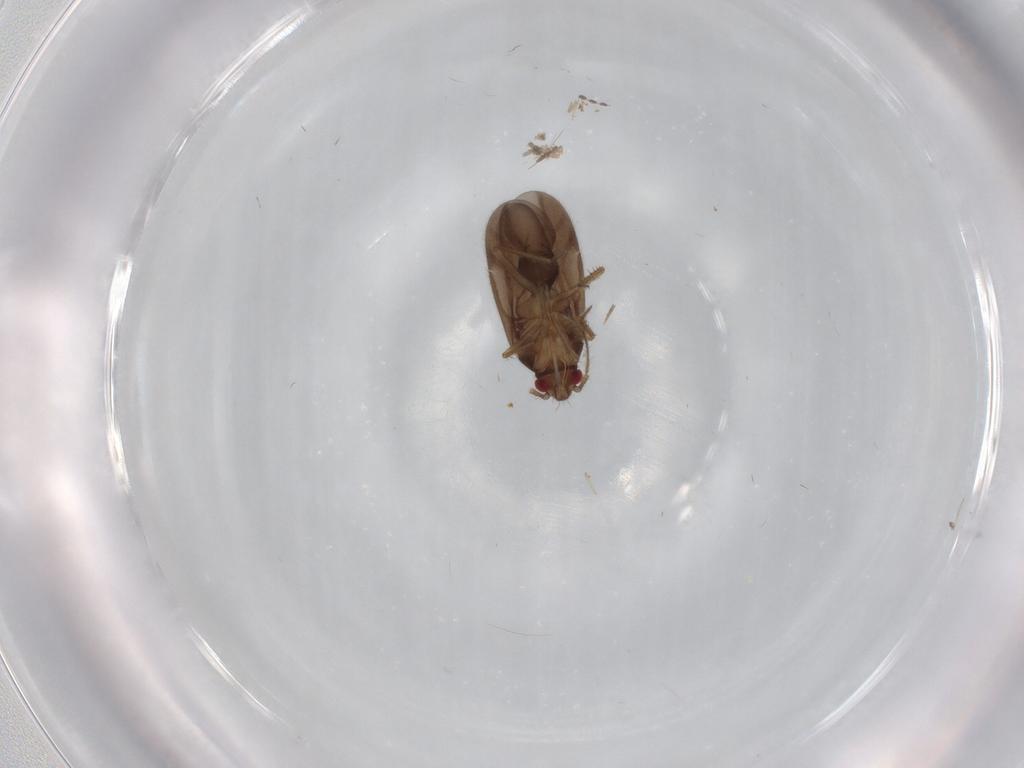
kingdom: Animalia
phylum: Arthropoda
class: Insecta
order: Hemiptera
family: Ceratocombidae
